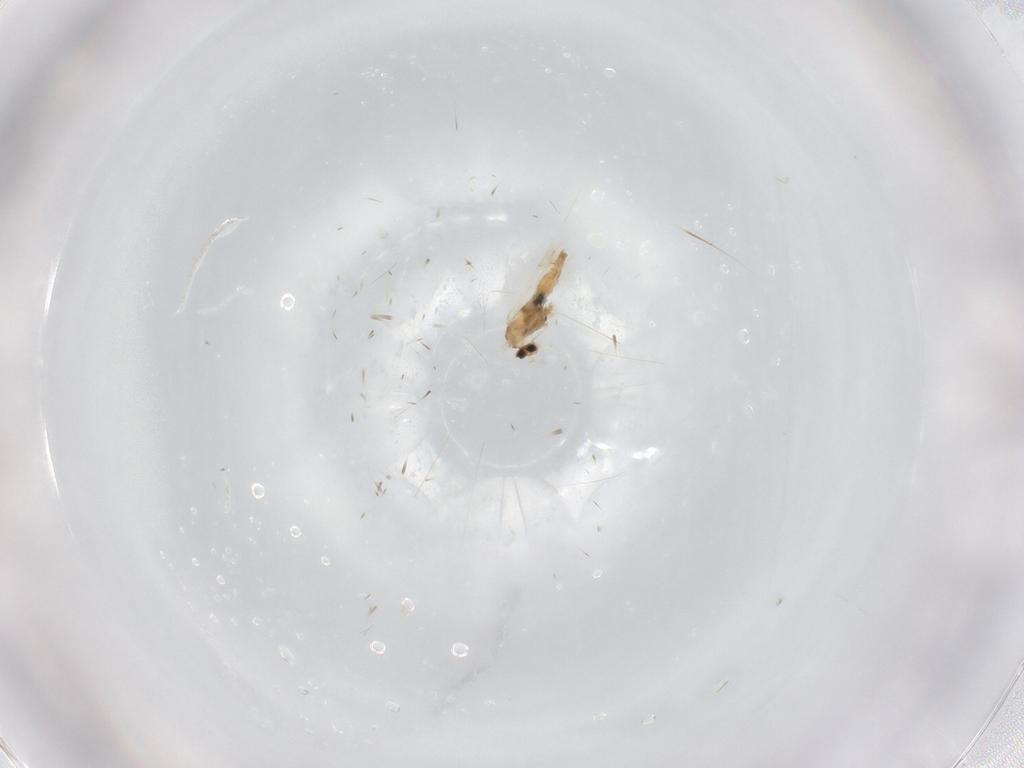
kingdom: Animalia
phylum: Arthropoda
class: Insecta
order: Diptera
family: Cecidomyiidae
